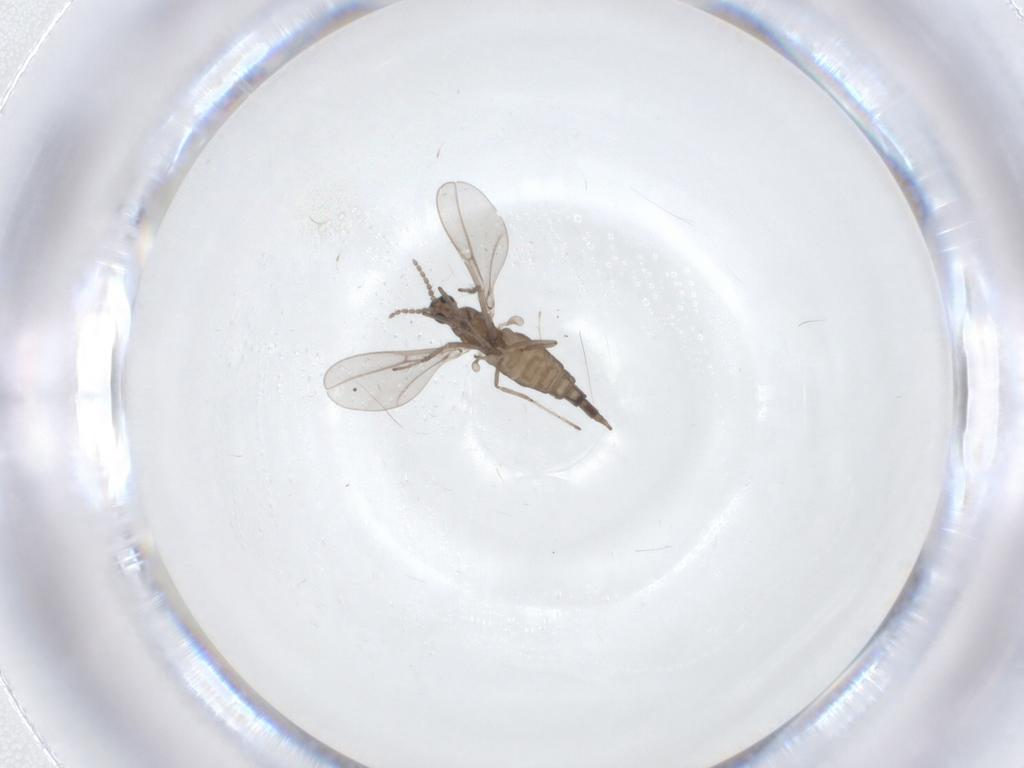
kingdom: Animalia
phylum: Arthropoda
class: Insecta
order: Diptera
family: Cecidomyiidae
